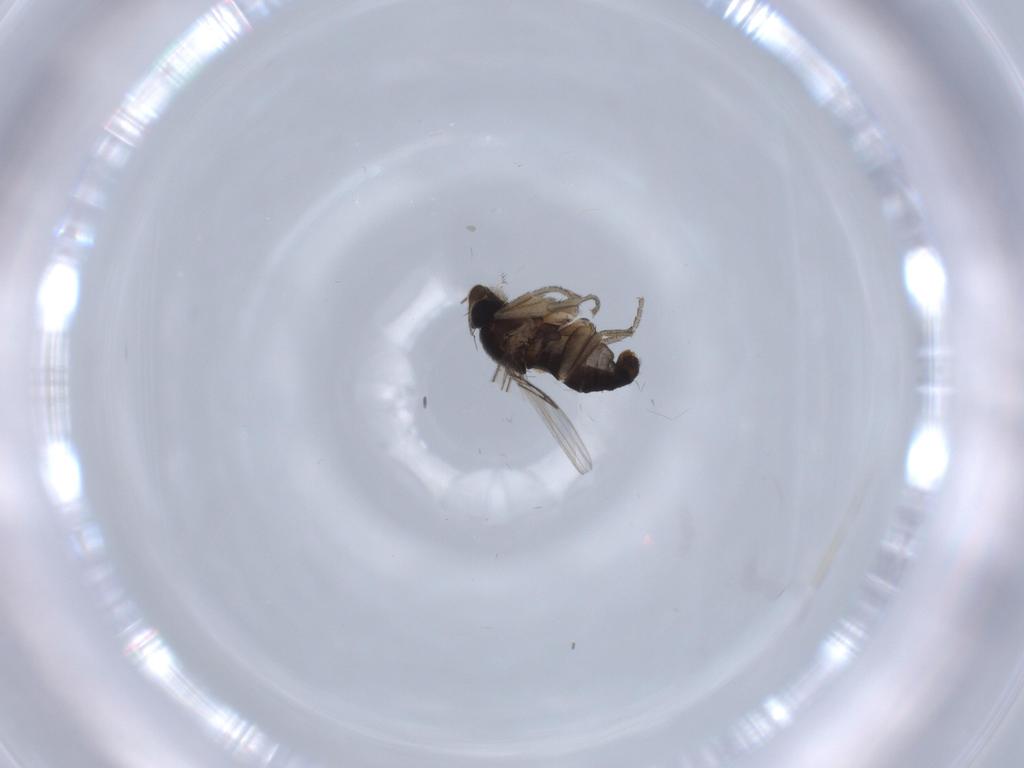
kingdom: Animalia
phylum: Arthropoda
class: Insecta
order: Diptera
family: Phoridae
